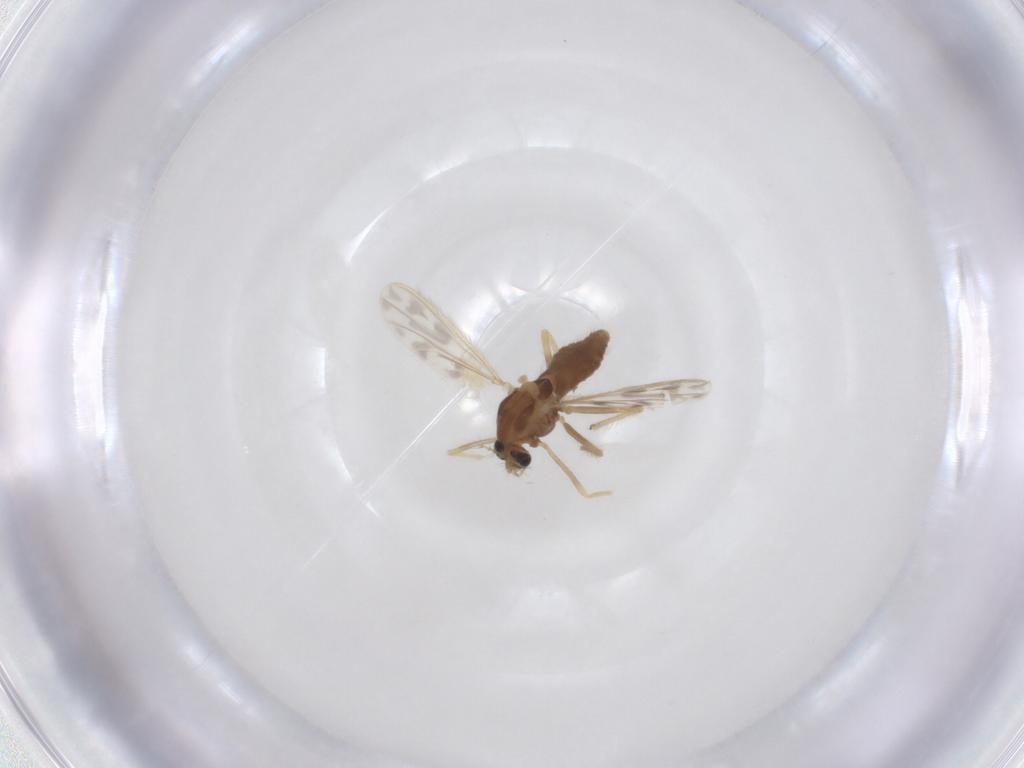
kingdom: Animalia
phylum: Arthropoda
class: Insecta
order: Diptera
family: Chironomidae
